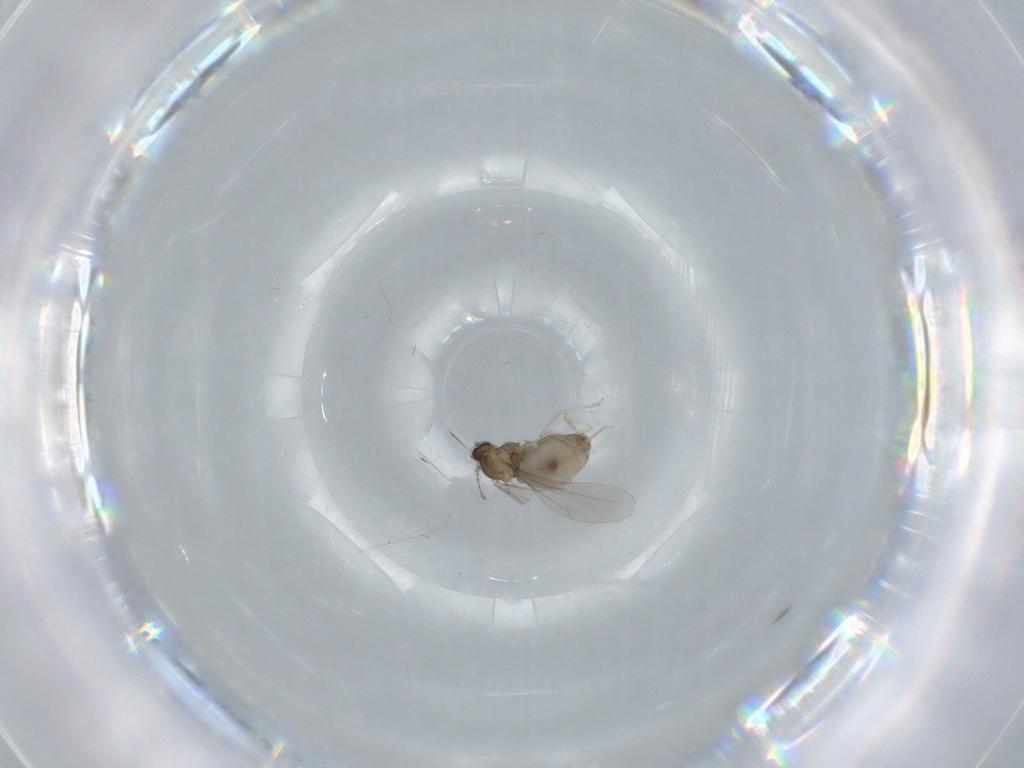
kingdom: Animalia
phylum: Arthropoda
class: Insecta
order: Diptera
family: Cecidomyiidae
